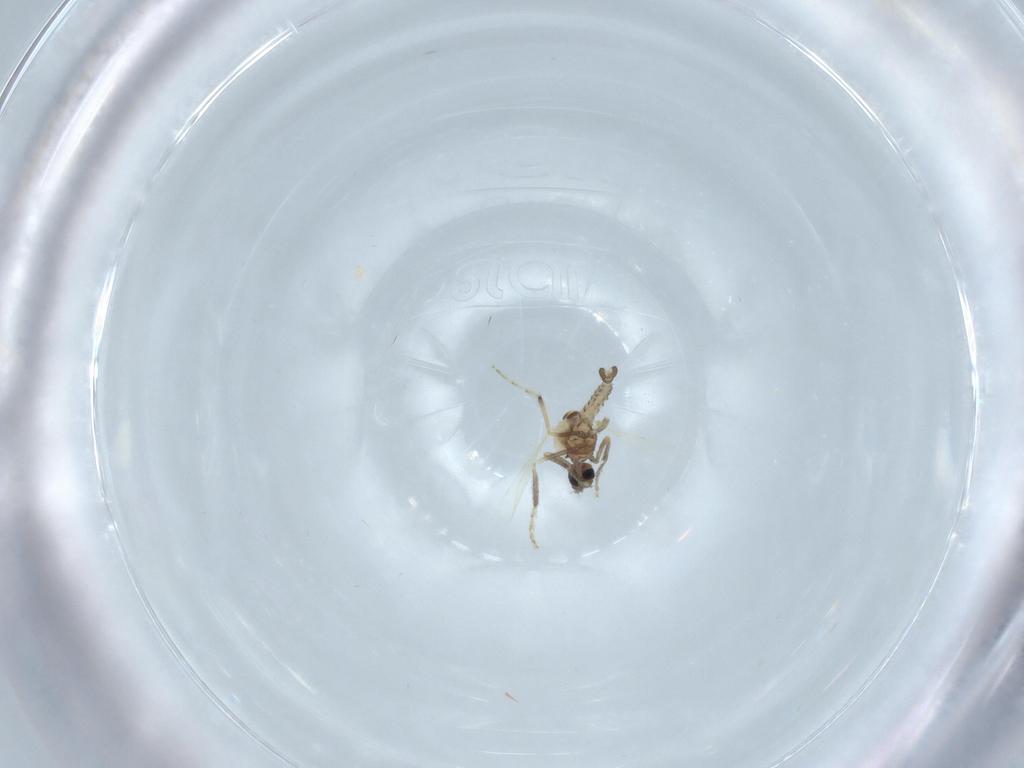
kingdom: Animalia
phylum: Arthropoda
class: Insecta
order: Diptera
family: Ceratopogonidae
